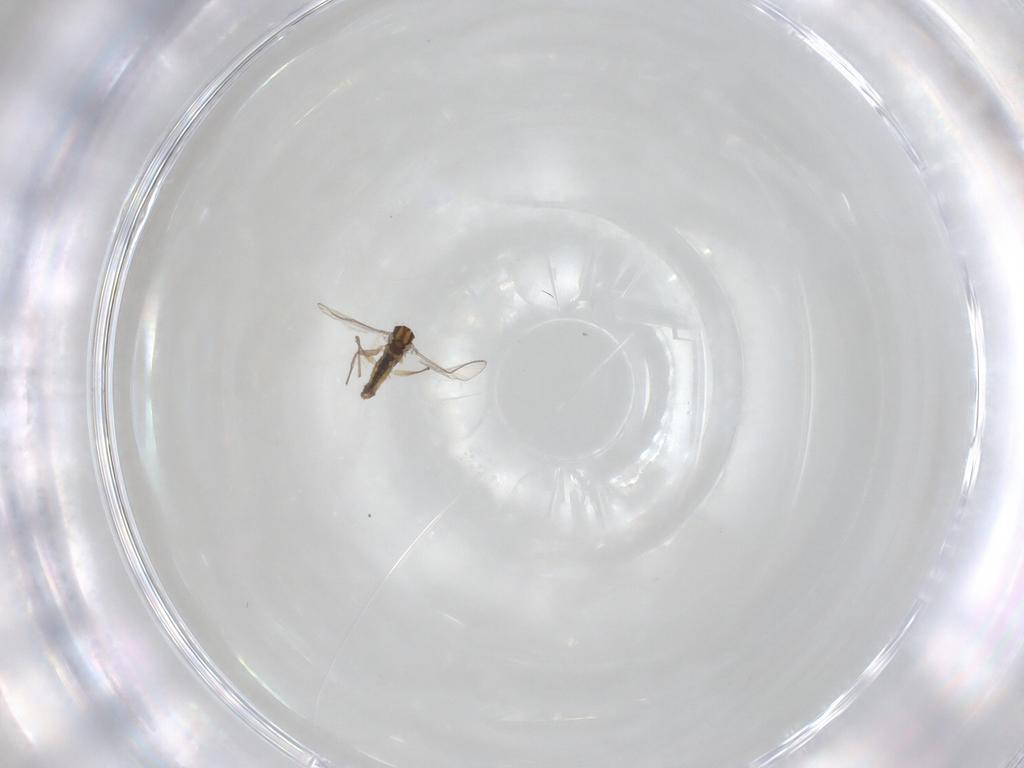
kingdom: Animalia
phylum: Arthropoda
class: Insecta
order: Diptera
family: Chironomidae
